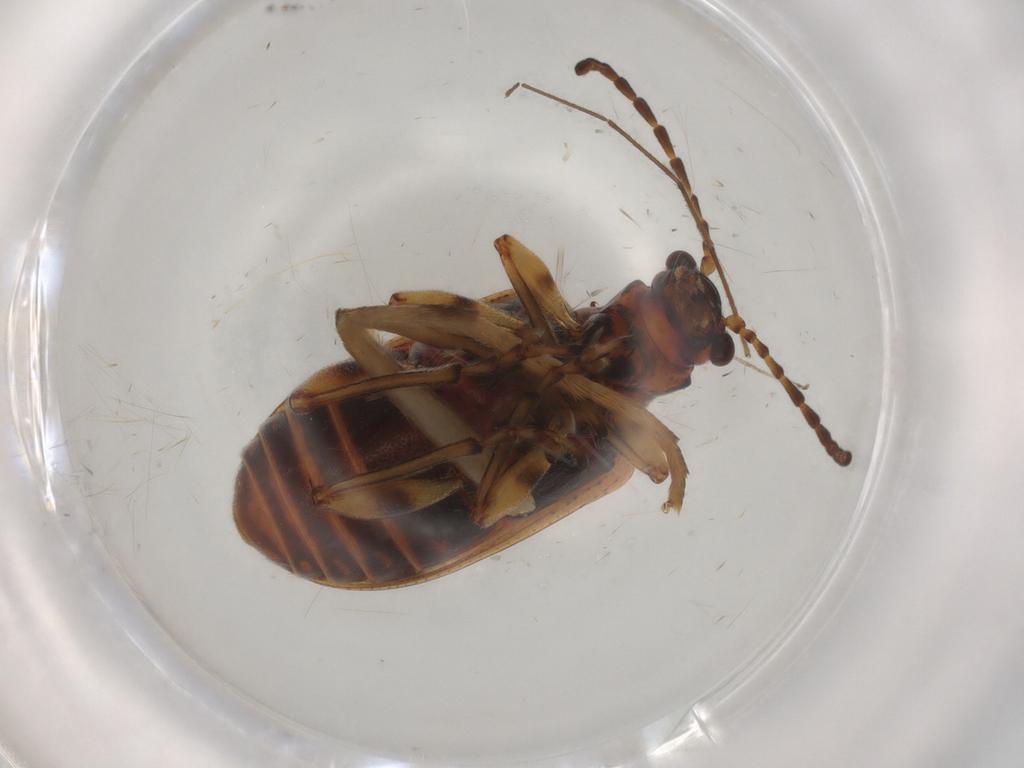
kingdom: Animalia
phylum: Arthropoda
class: Insecta
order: Coleoptera
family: Chrysomelidae
